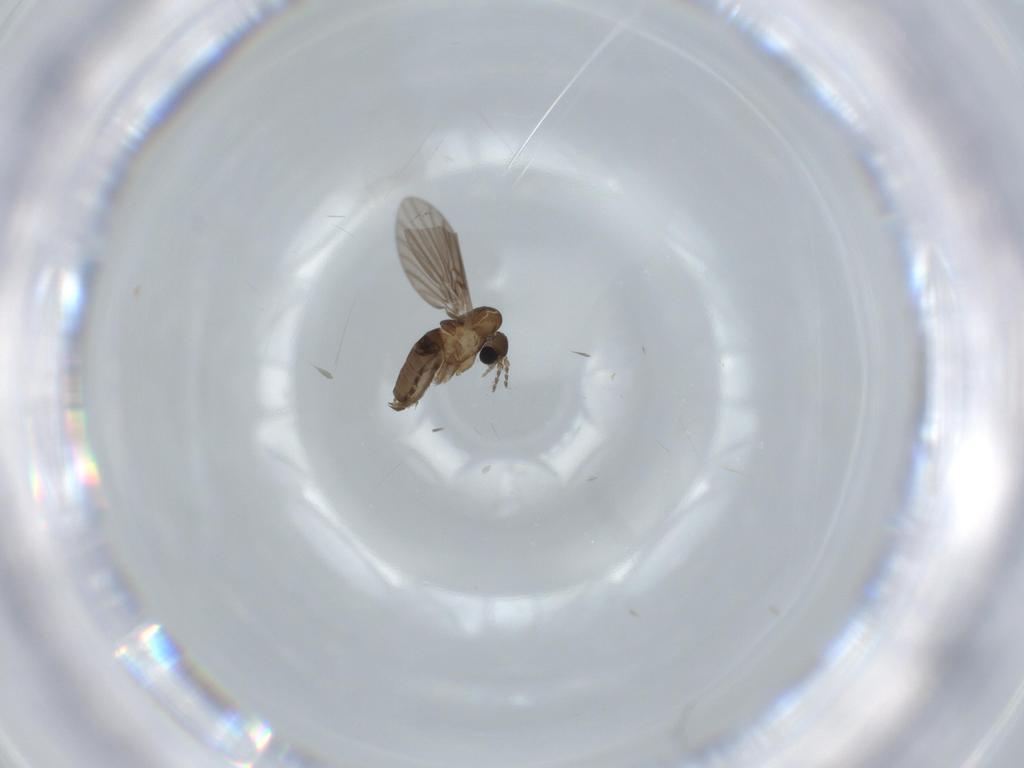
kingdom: Animalia
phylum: Arthropoda
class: Insecta
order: Diptera
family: Psychodidae
